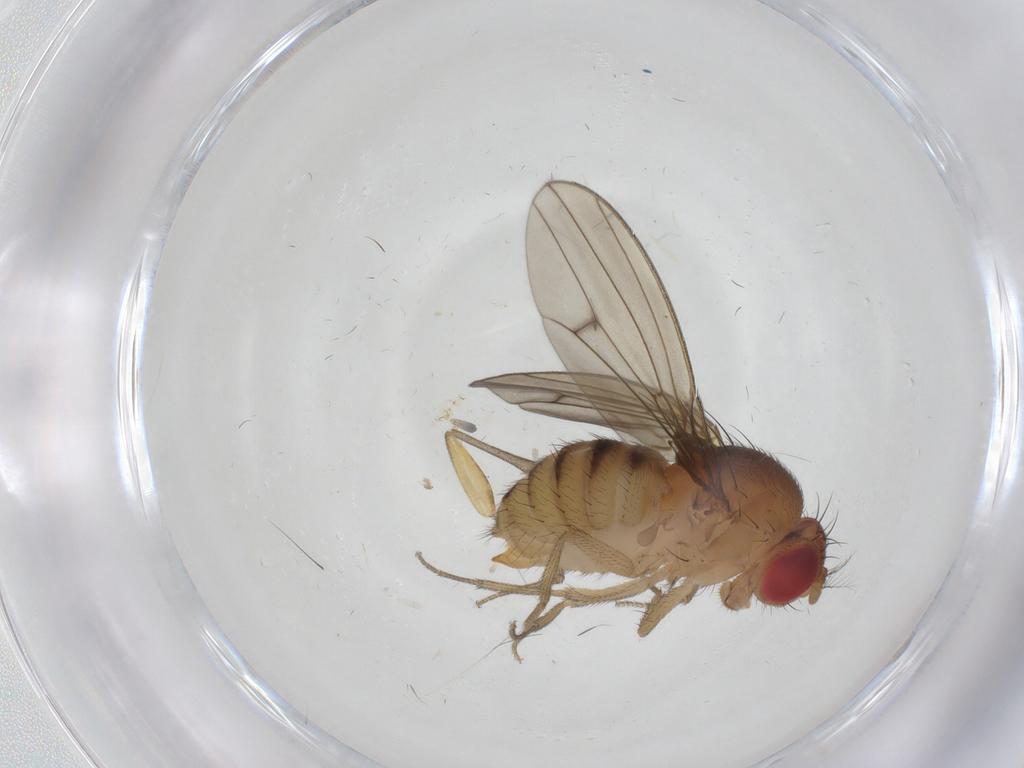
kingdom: Animalia
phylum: Arthropoda
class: Insecta
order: Diptera
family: Drosophilidae
